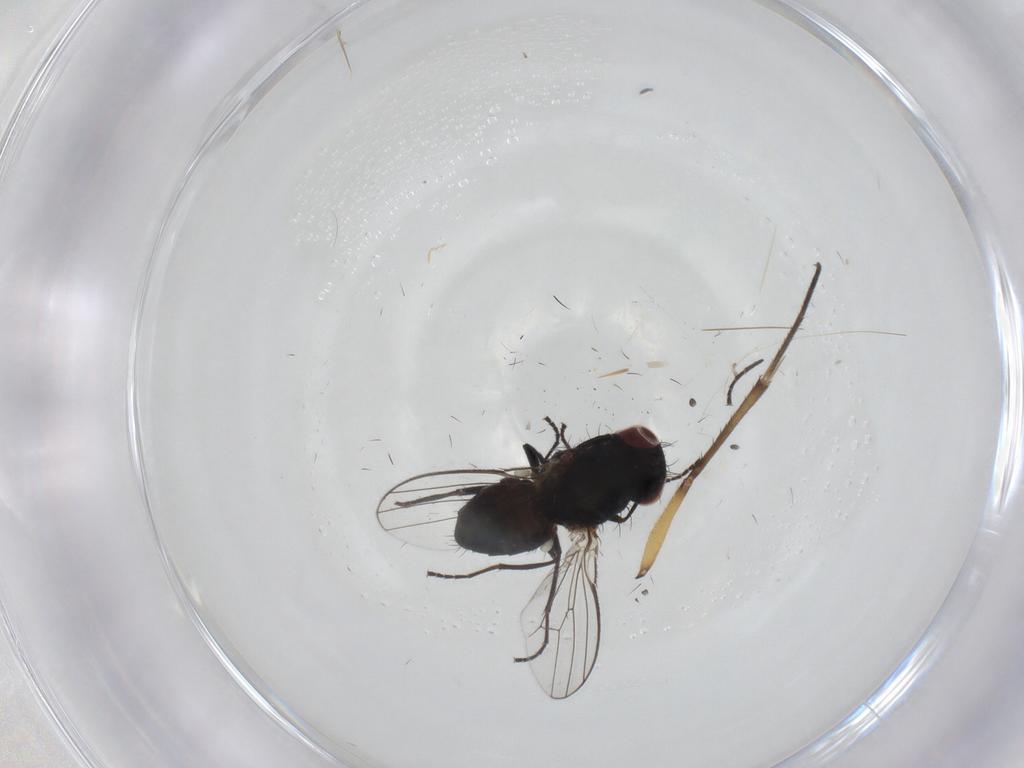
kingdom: Animalia
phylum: Arthropoda
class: Insecta
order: Diptera
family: Carnidae
